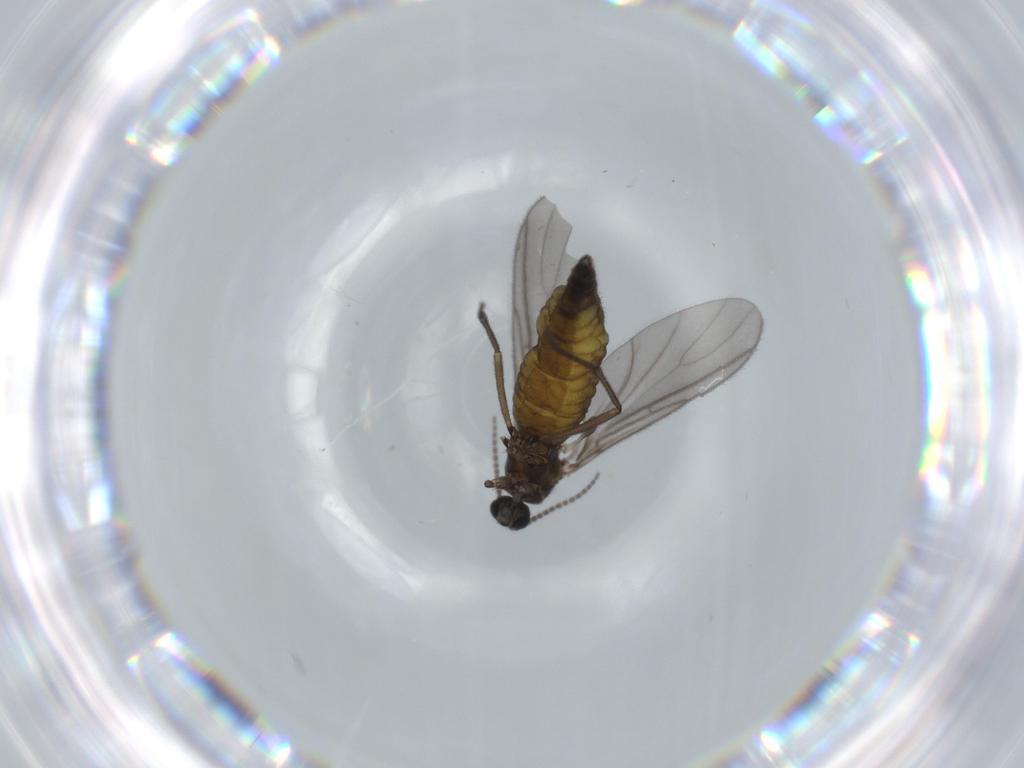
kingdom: Animalia
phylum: Arthropoda
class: Insecta
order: Diptera
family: Sciaridae
